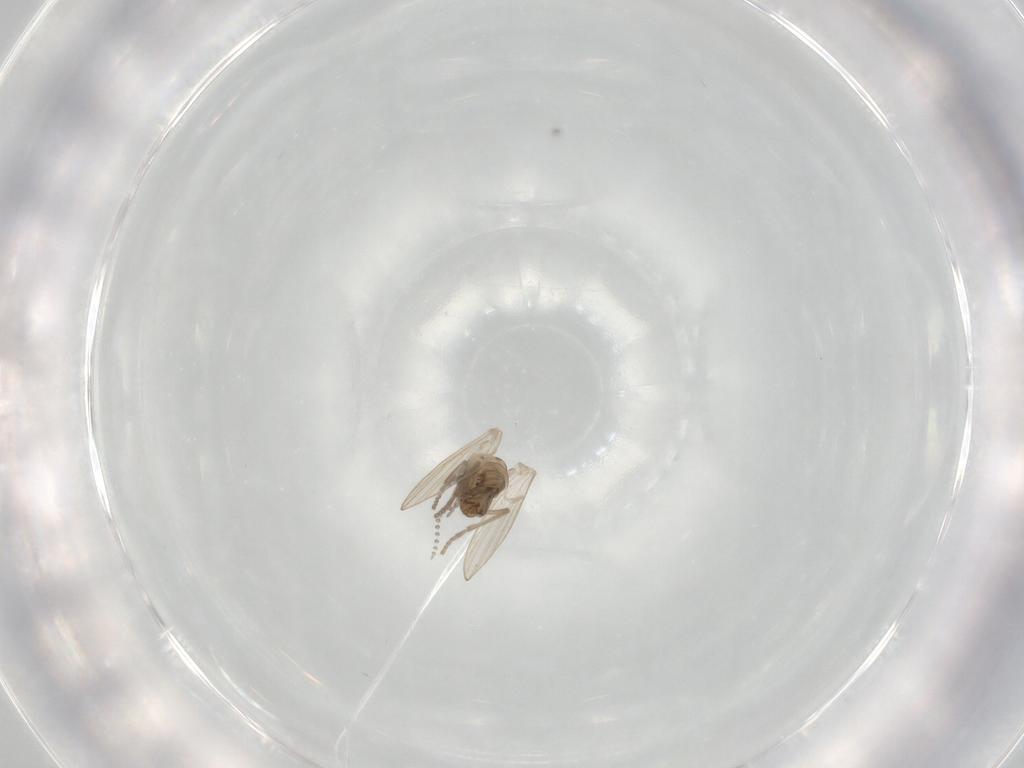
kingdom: Animalia
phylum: Arthropoda
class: Insecta
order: Diptera
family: Psychodidae
